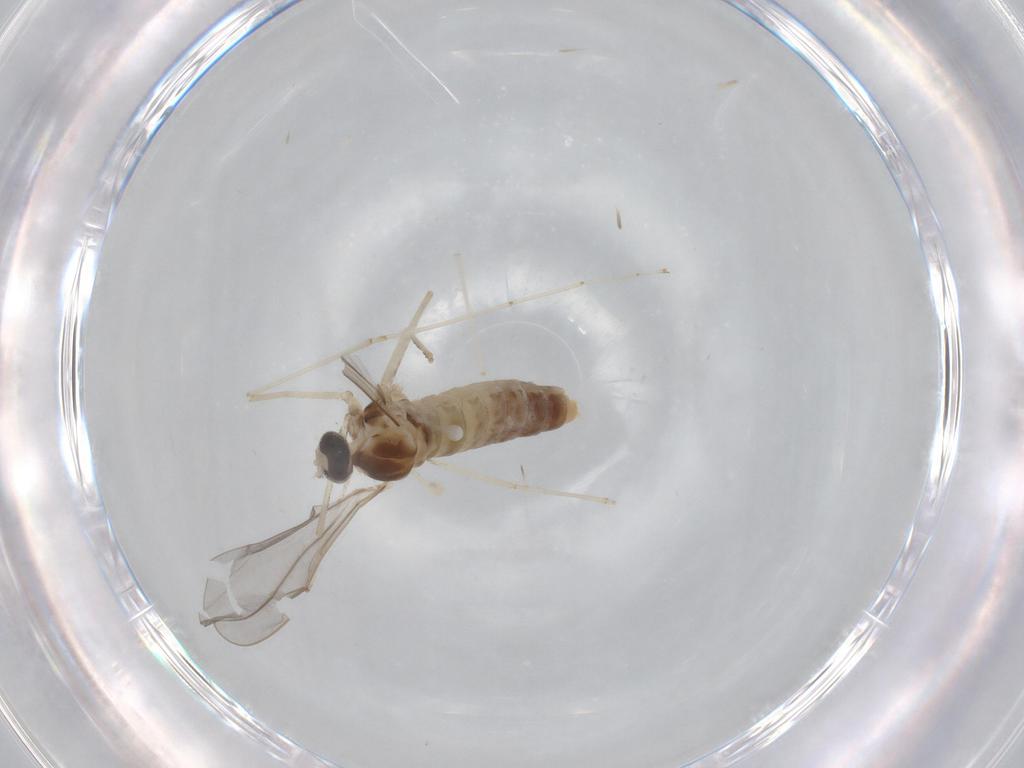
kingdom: Animalia
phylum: Arthropoda
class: Insecta
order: Diptera
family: Cecidomyiidae
